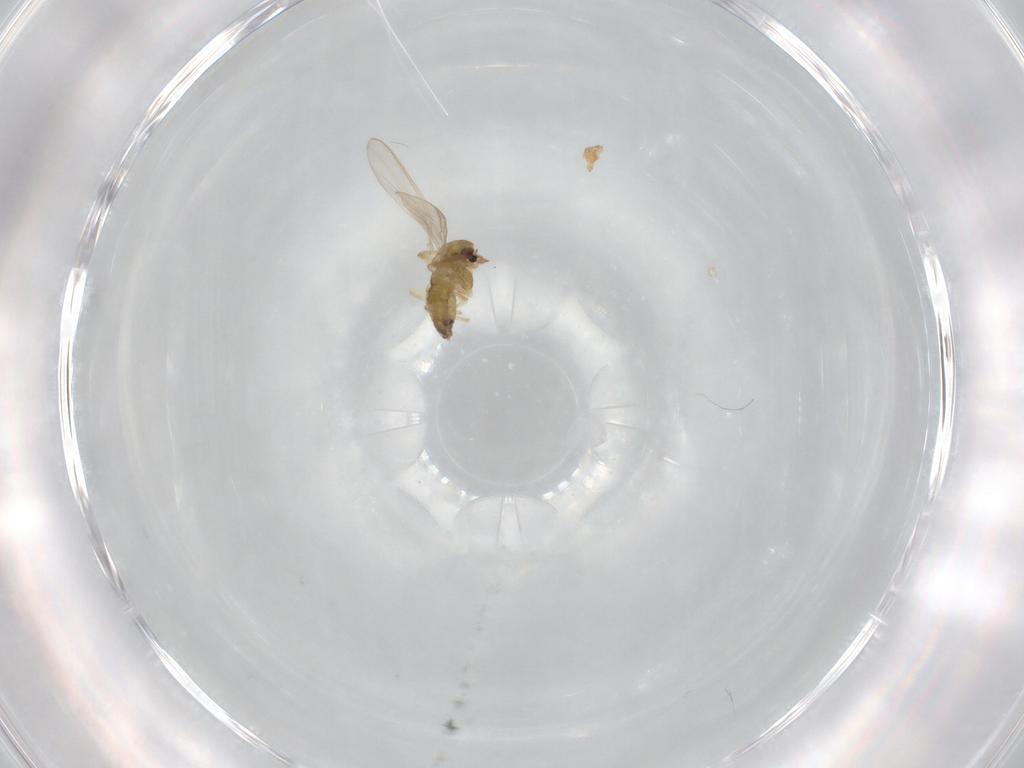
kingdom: Animalia
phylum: Arthropoda
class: Insecta
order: Diptera
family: Chironomidae
